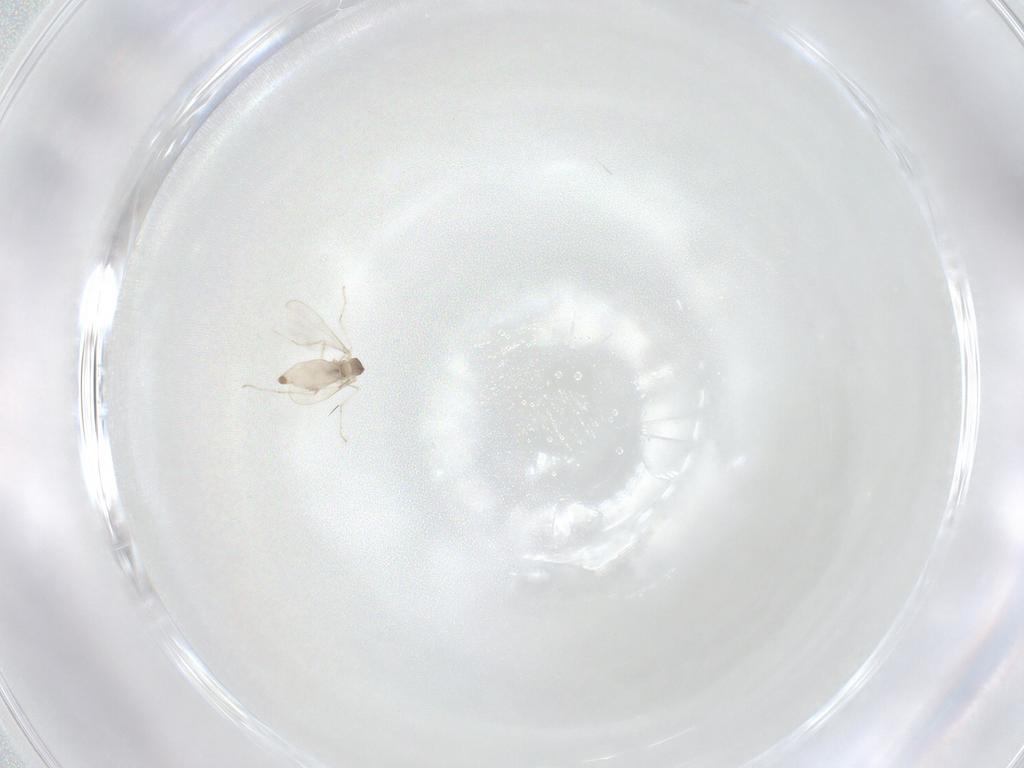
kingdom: Animalia
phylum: Arthropoda
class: Insecta
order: Diptera
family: Cecidomyiidae
